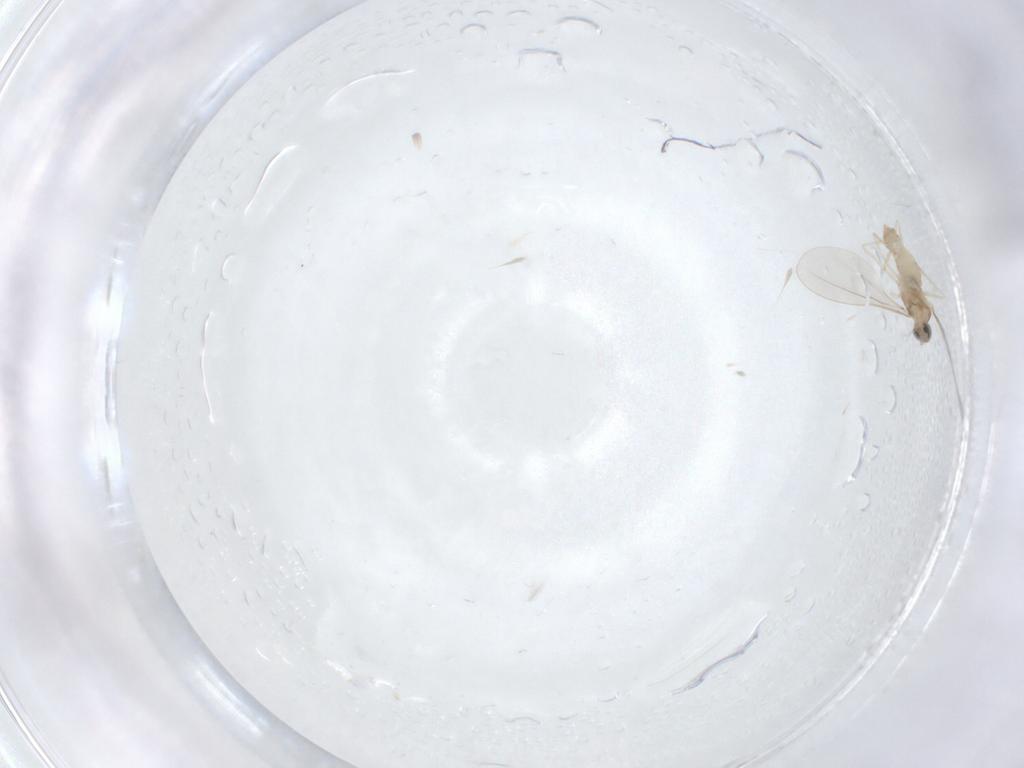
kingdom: Animalia
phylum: Arthropoda
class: Insecta
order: Diptera
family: Cecidomyiidae
